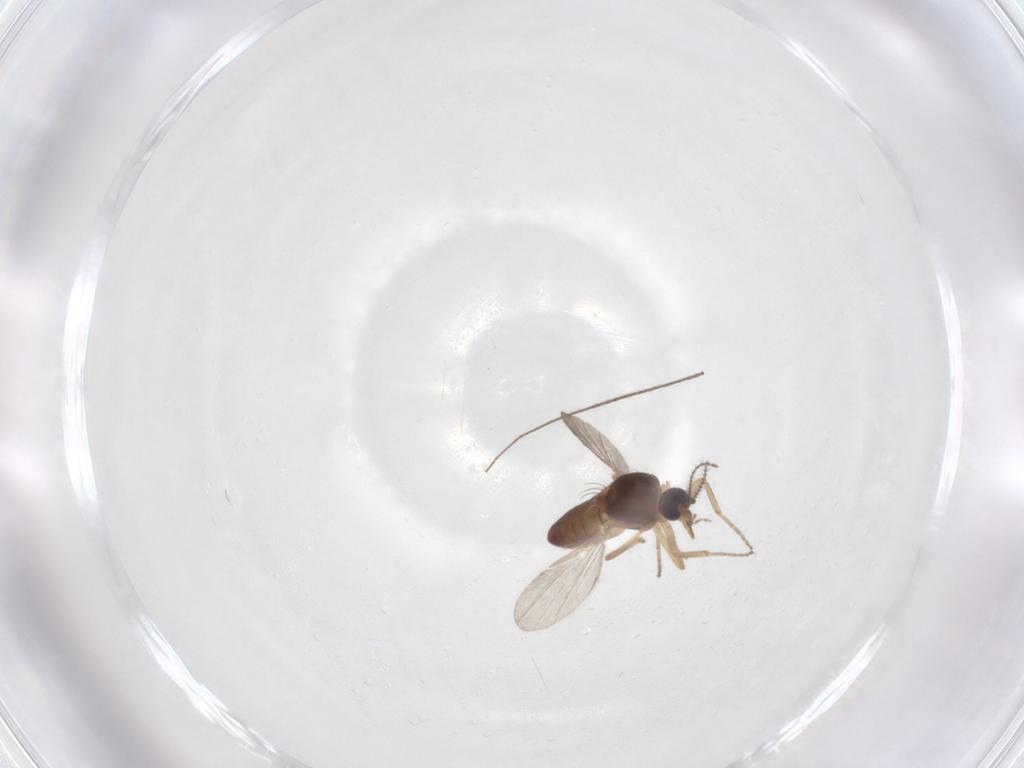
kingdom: Animalia
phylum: Arthropoda
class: Insecta
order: Diptera
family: Ceratopogonidae
